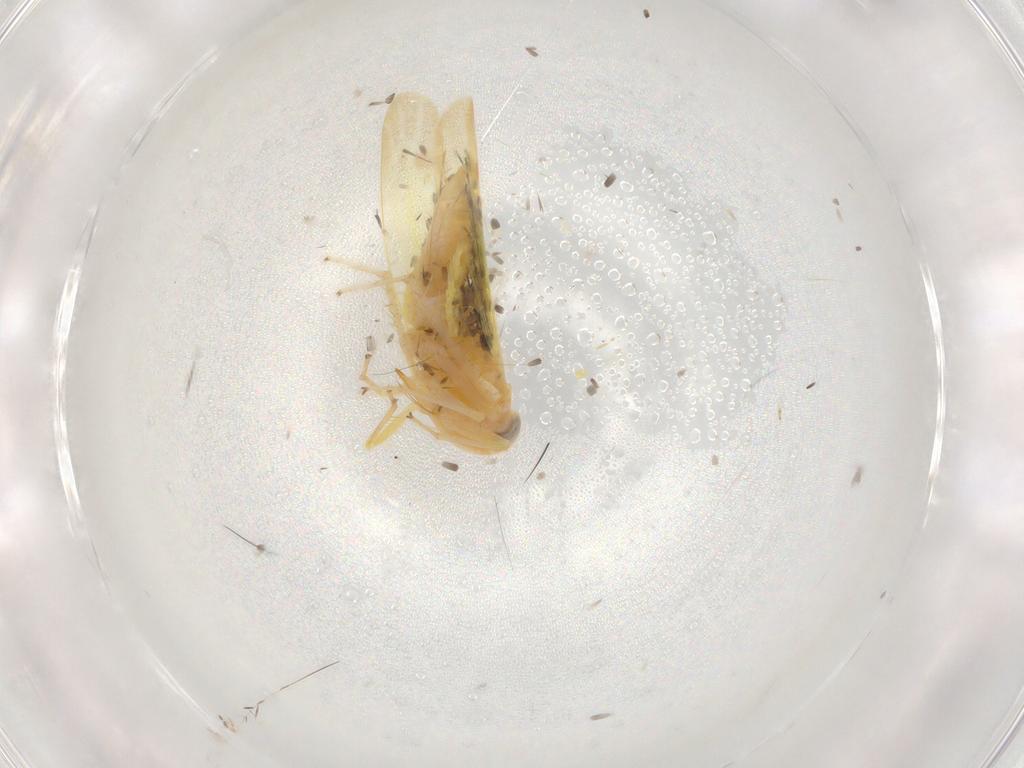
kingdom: Animalia
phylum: Arthropoda
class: Insecta
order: Hemiptera
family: Cicadellidae
